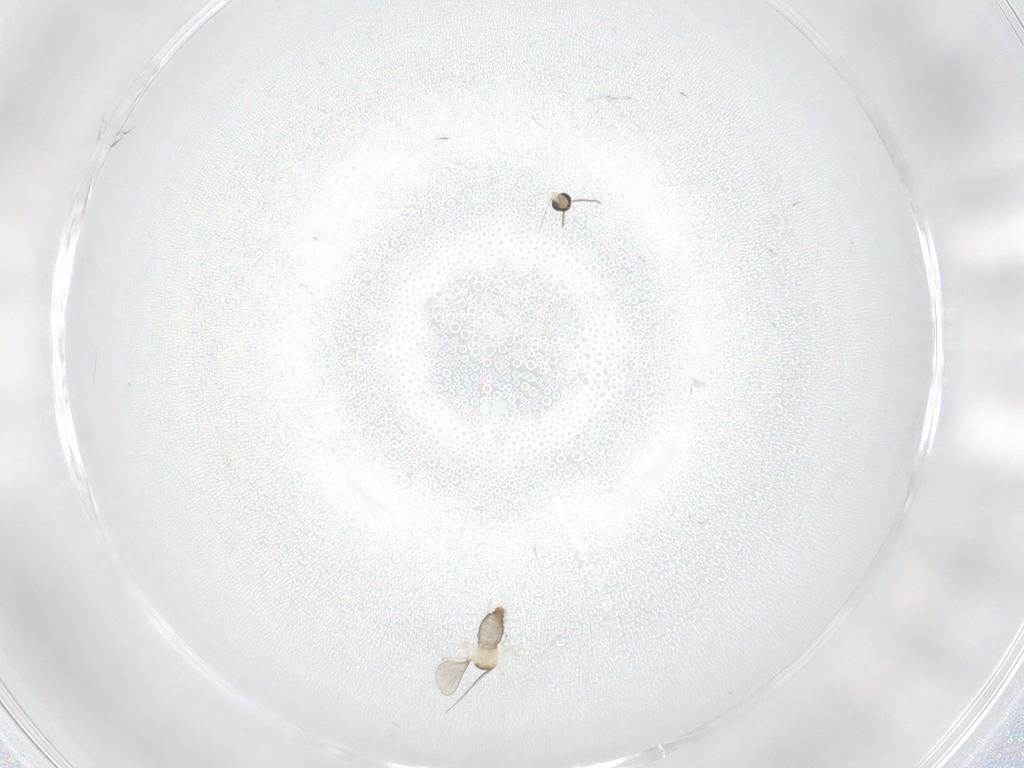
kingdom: Animalia
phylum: Arthropoda
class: Insecta
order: Diptera
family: Cecidomyiidae
